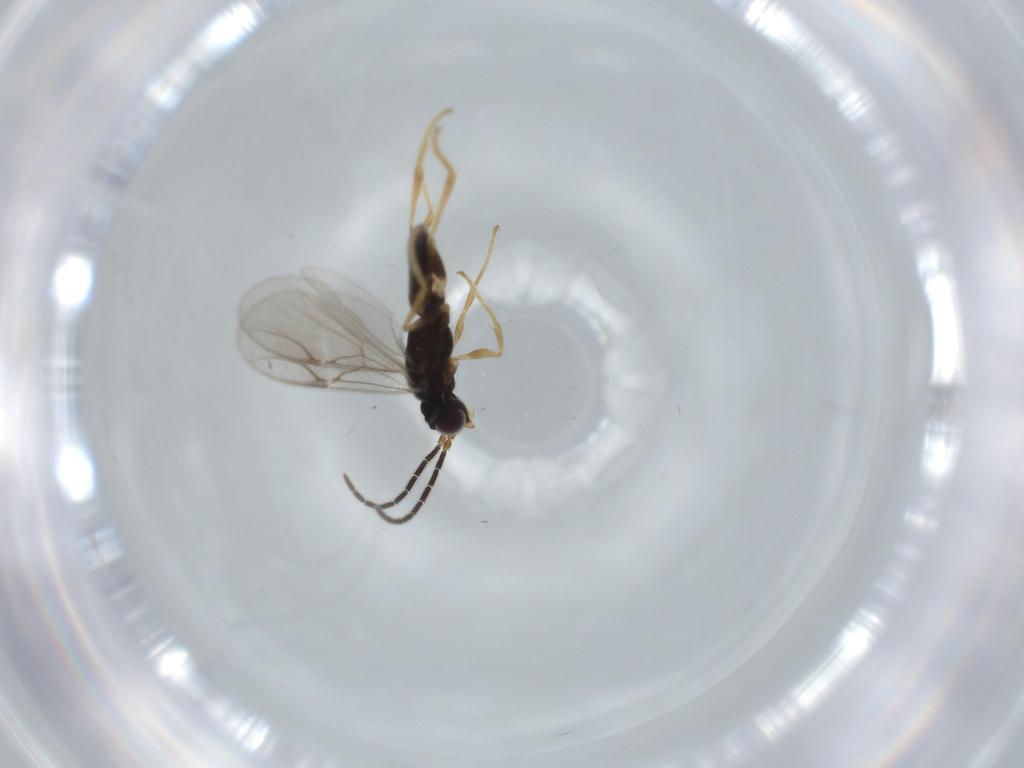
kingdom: Animalia
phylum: Arthropoda
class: Insecta
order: Hymenoptera
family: Dryinidae
